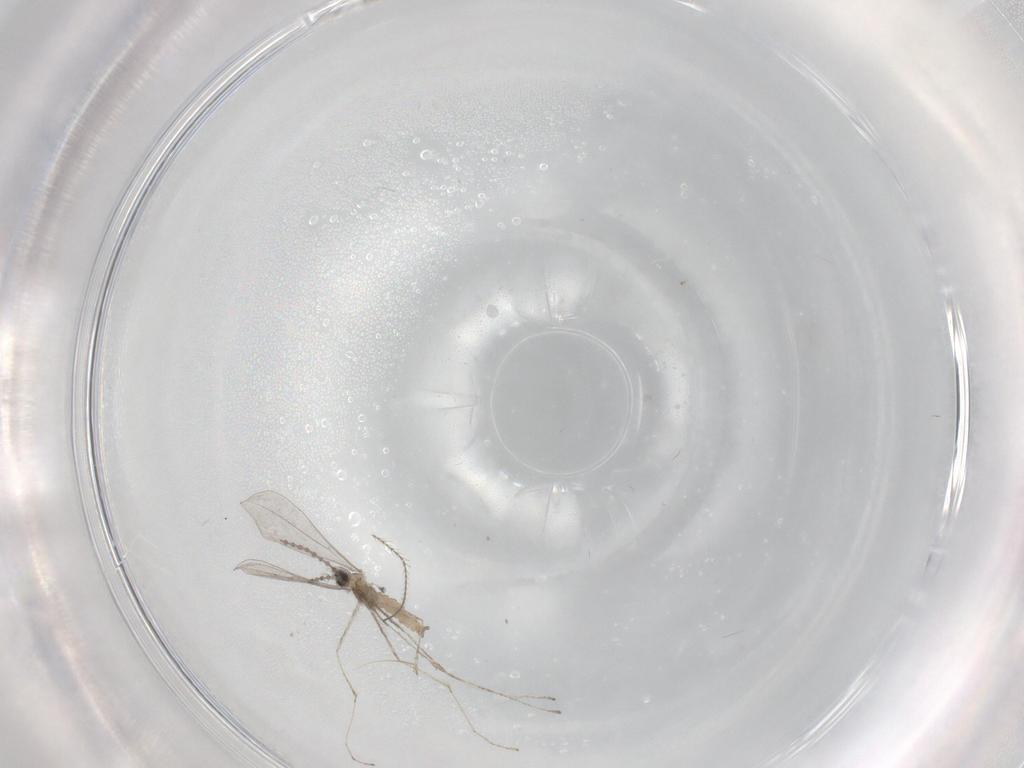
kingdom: Animalia
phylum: Arthropoda
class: Insecta
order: Diptera
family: Cecidomyiidae
